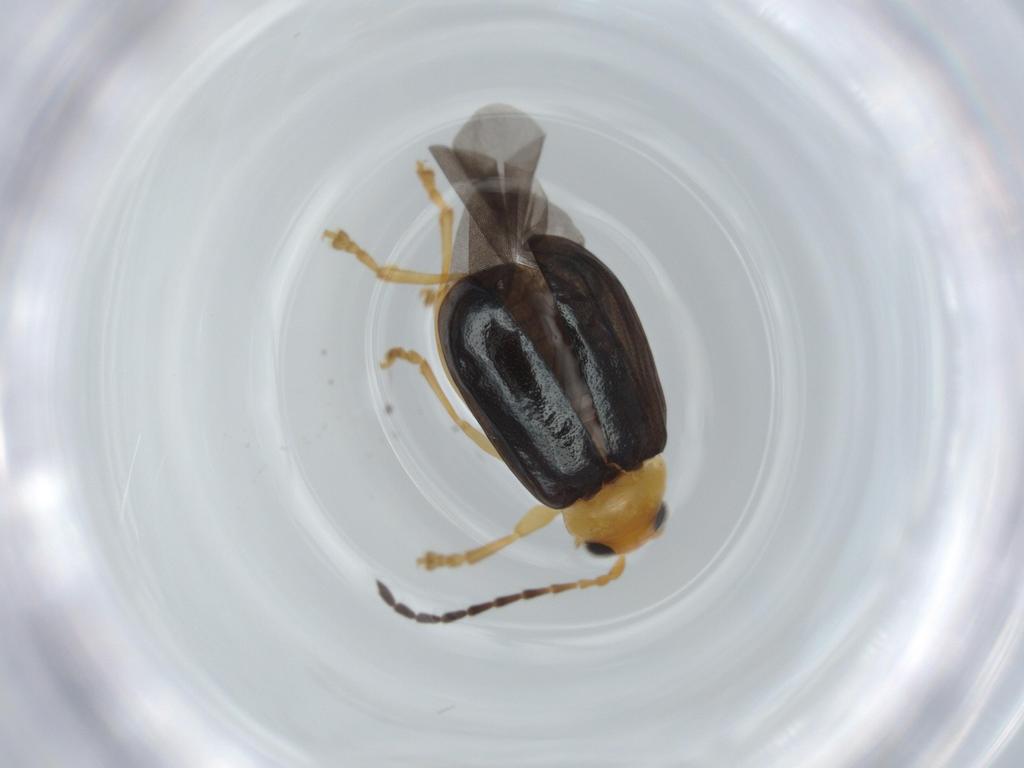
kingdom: Animalia
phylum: Arthropoda
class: Insecta
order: Coleoptera
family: Chrysomelidae
